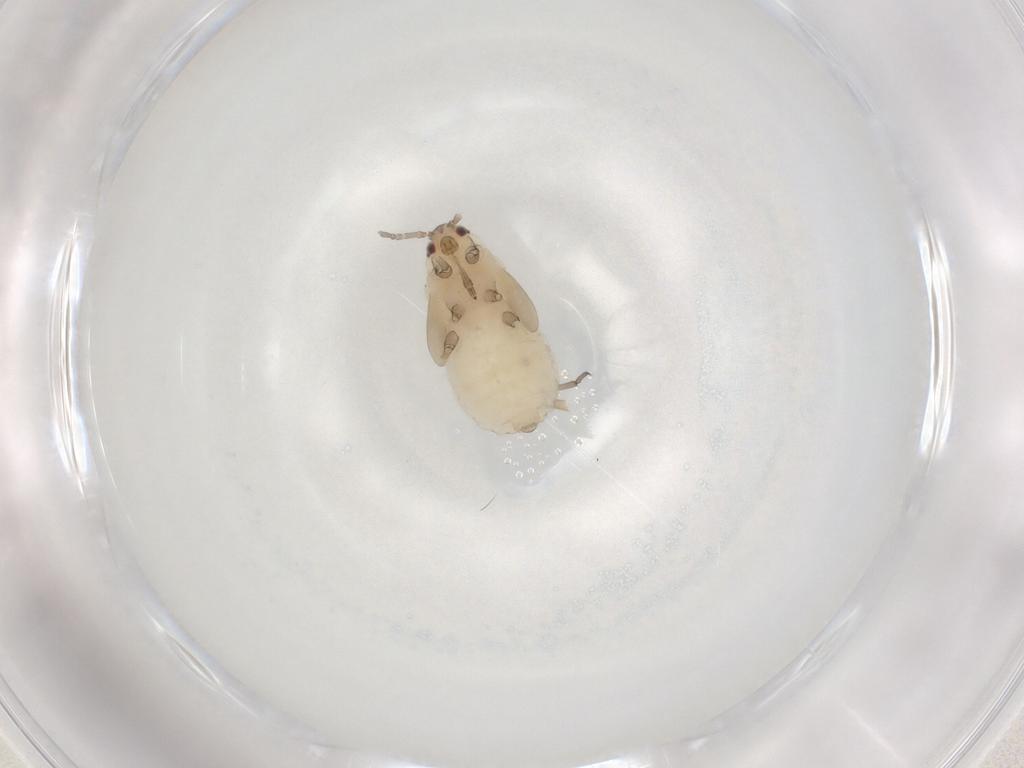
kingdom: Animalia
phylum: Arthropoda
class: Insecta
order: Hemiptera
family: Aphididae
